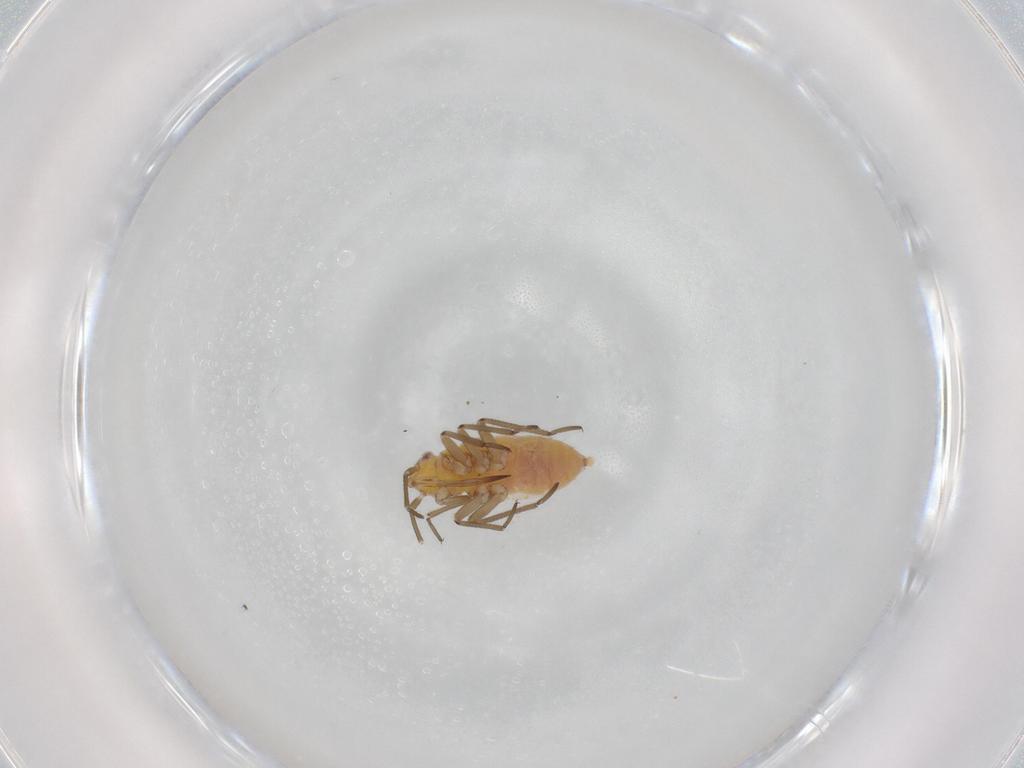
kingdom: Animalia
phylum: Arthropoda
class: Insecta
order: Hemiptera
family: Miridae
